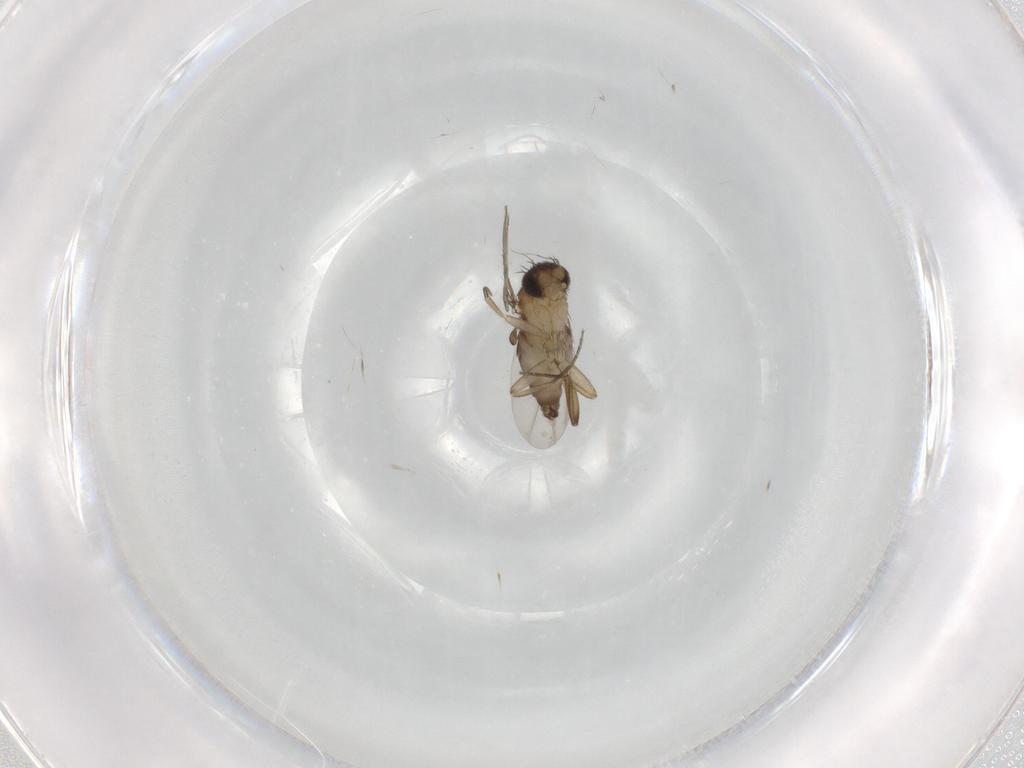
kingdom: Animalia
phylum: Arthropoda
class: Insecta
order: Diptera
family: Phoridae
